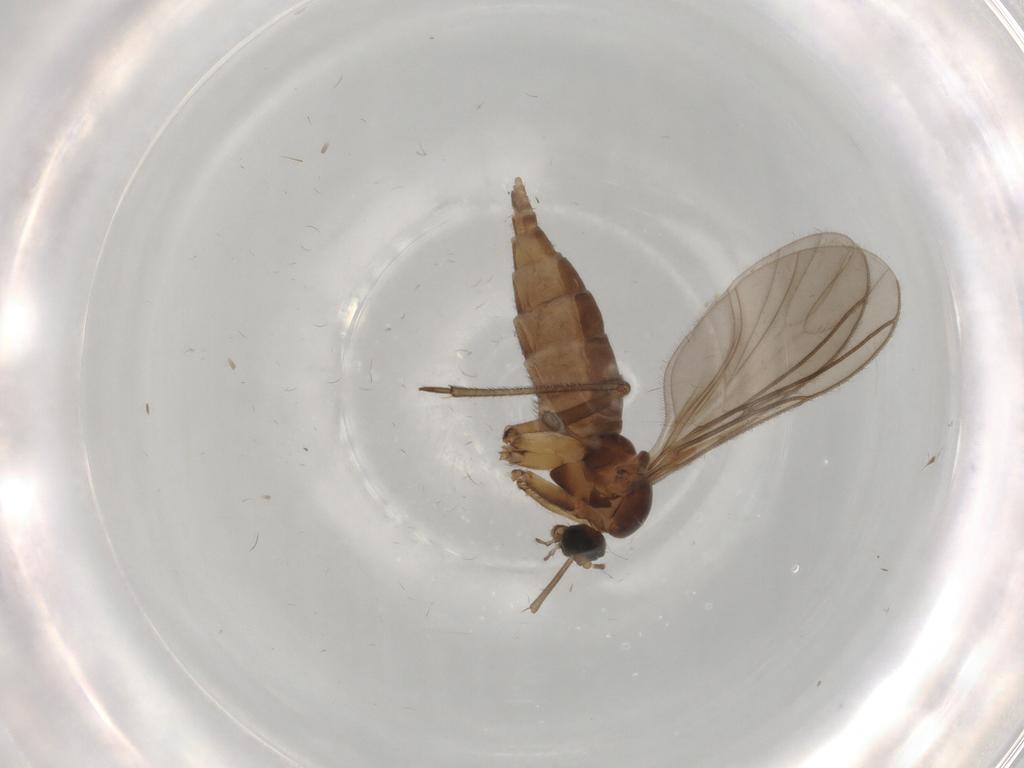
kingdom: Animalia
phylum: Arthropoda
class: Insecta
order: Diptera
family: Sciaridae
